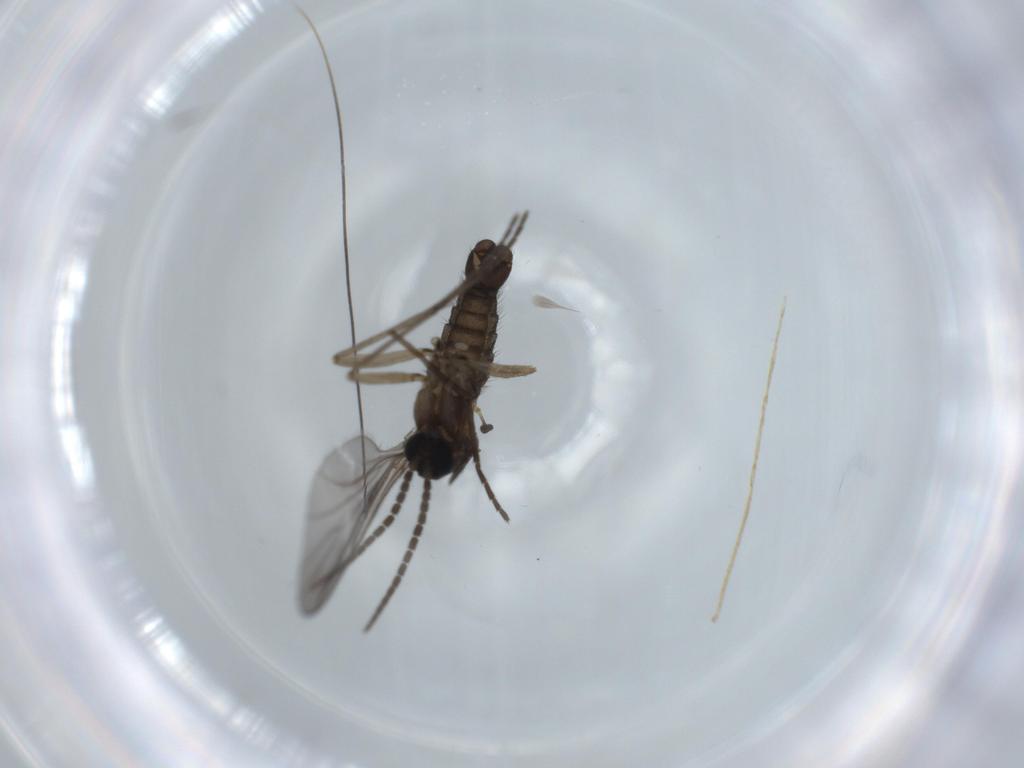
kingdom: Animalia
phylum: Arthropoda
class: Insecta
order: Diptera
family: Sciaridae
